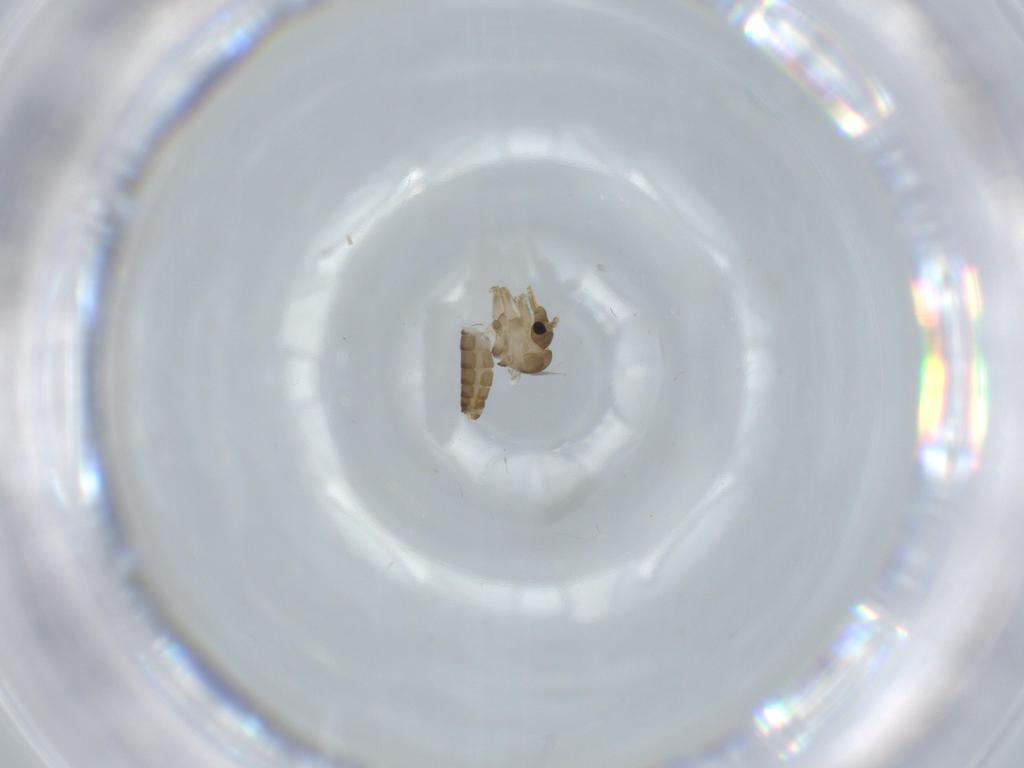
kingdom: Animalia
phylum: Arthropoda
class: Insecta
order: Diptera
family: Psychodidae
